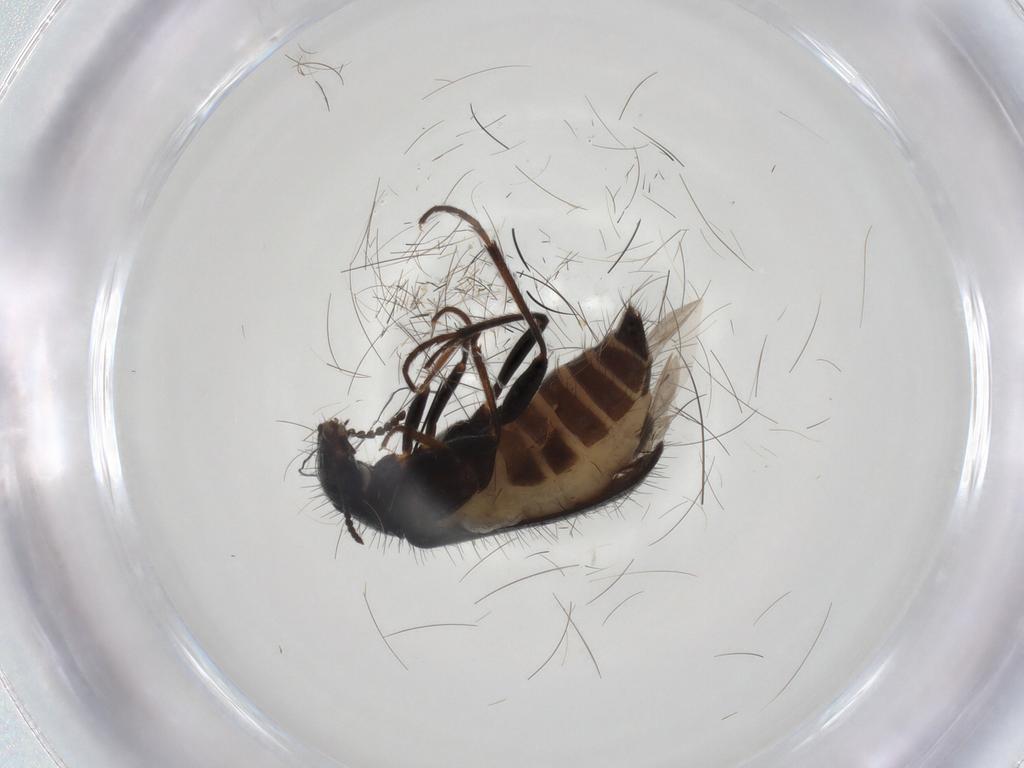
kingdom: Animalia
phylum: Arthropoda
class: Insecta
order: Coleoptera
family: Melyridae
